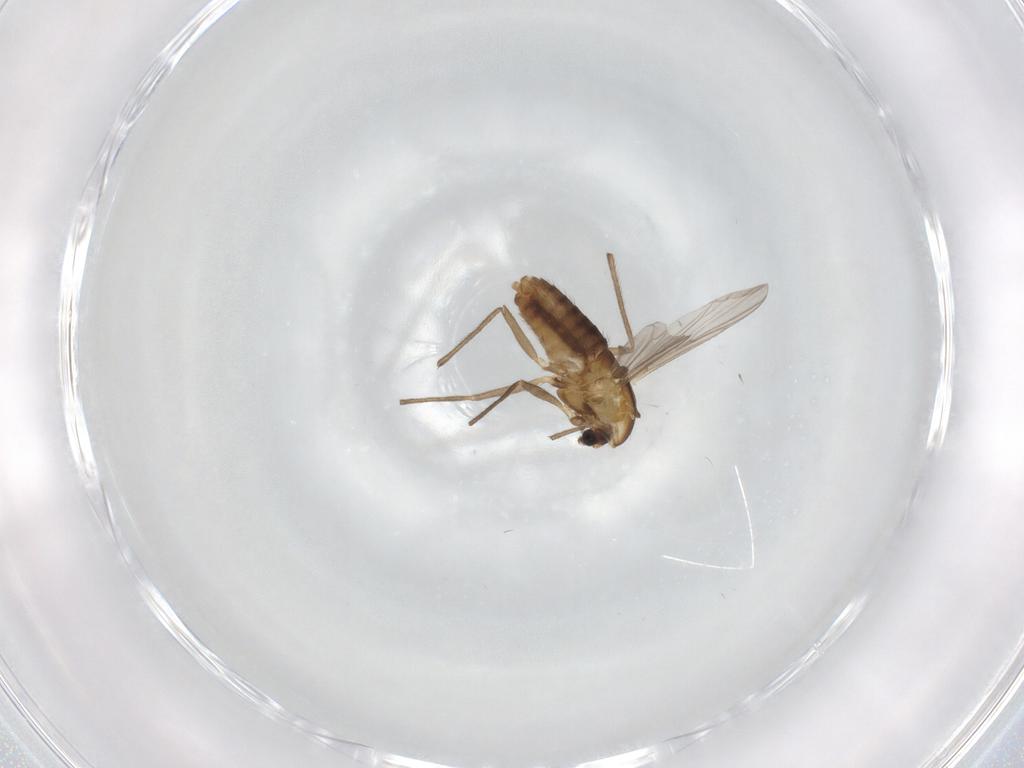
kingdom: Animalia
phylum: Arthropoda
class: Insecta
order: Diptera
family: Chironomidae
